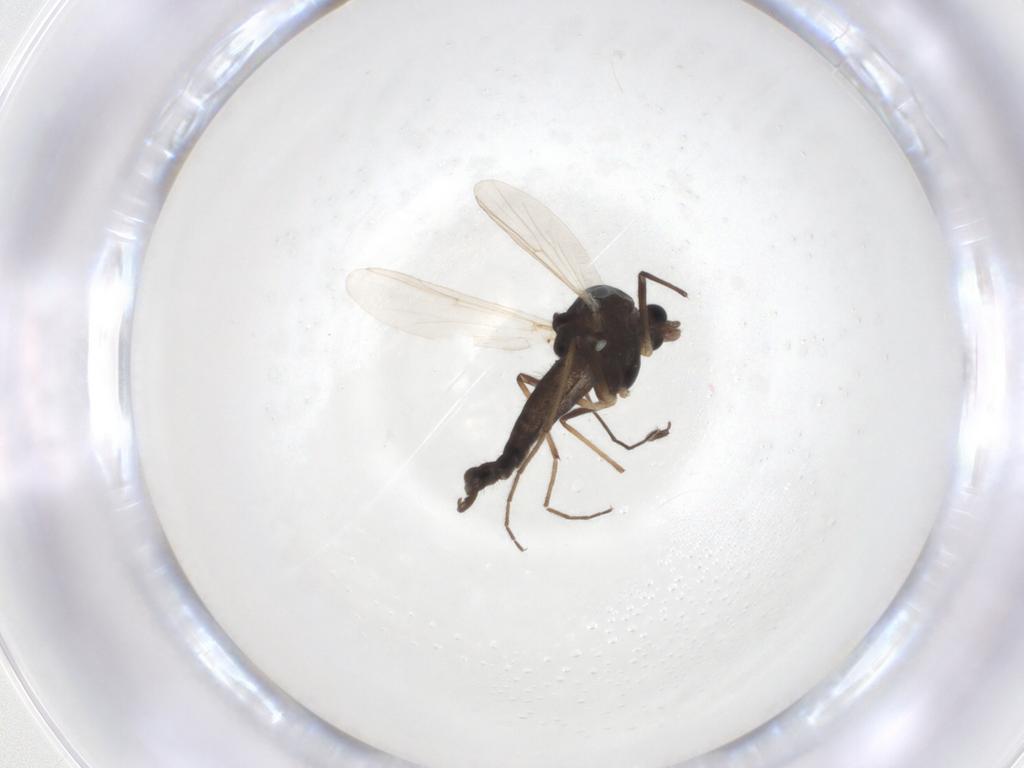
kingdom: Animalia
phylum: Arthropoda
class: Insecta
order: Diptera
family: Chironomidae
